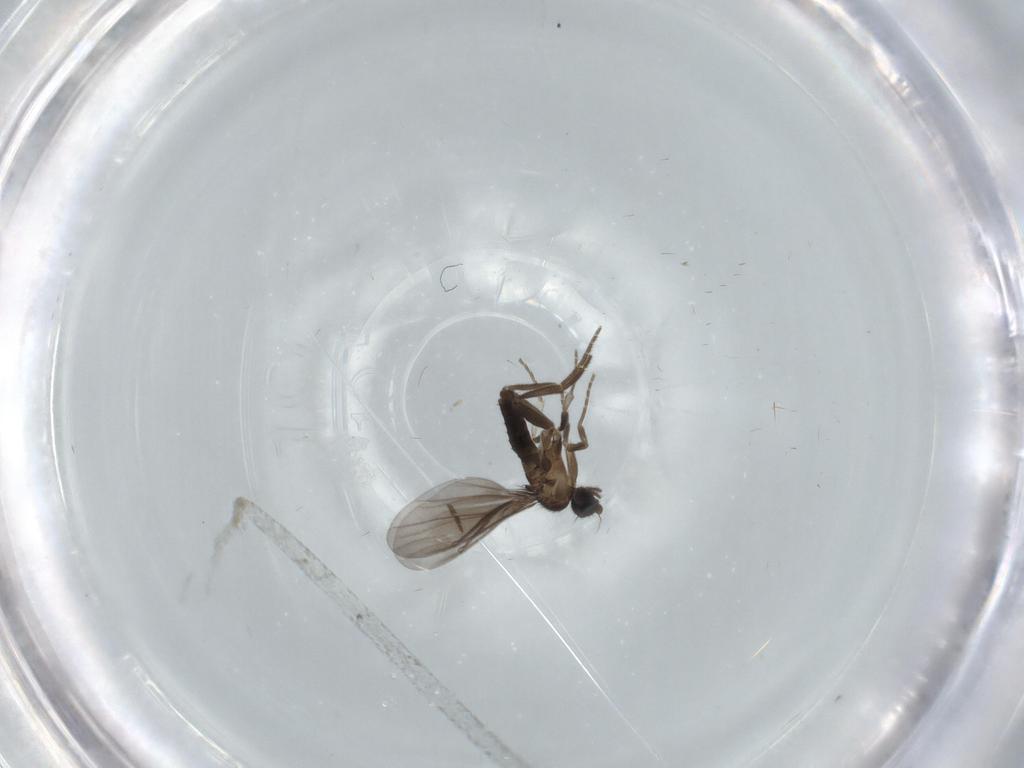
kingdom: Animalia
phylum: Arthropoda
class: Insecta
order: Diptera
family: Phoridae
